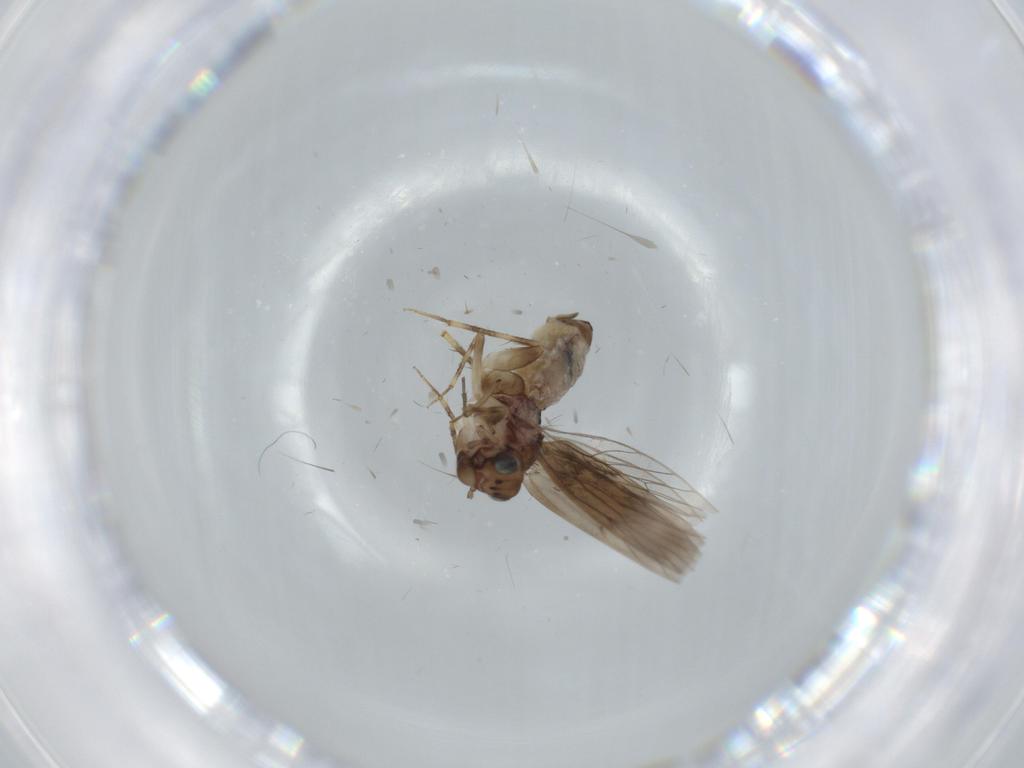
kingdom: Animalia
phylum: Arthropoda
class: Insecta
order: Psocodea
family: Lepidopsocidae
